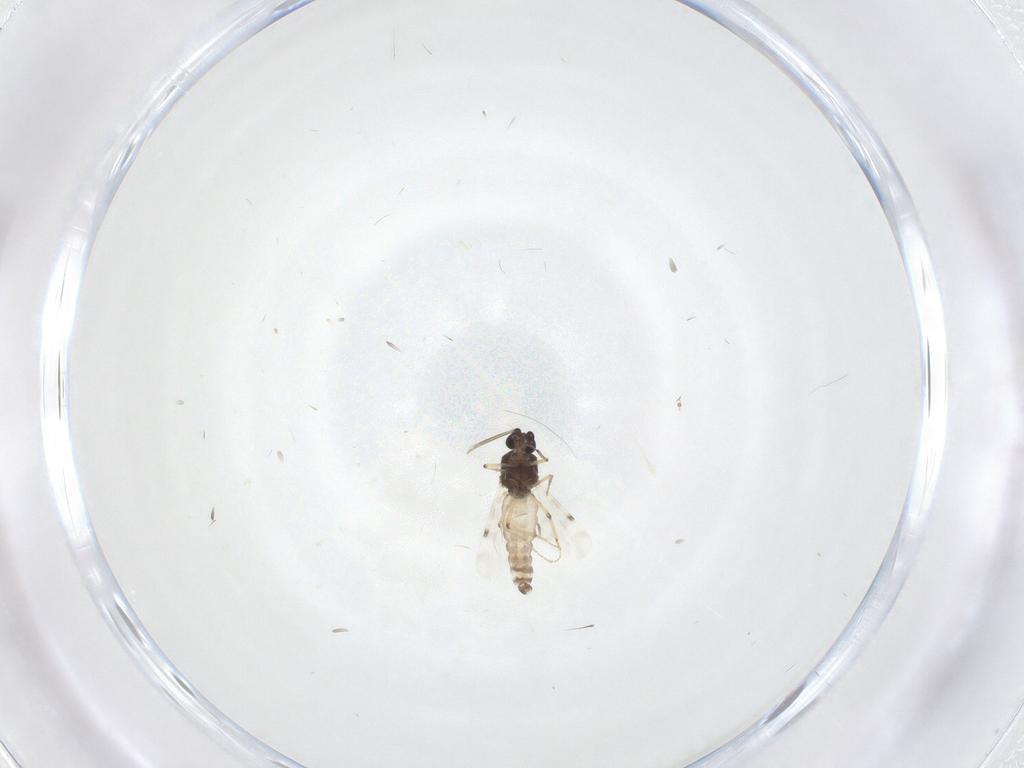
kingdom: Animalia
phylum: Arthropoda
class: Insecta
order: Diptera
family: Cecidomyiidae
